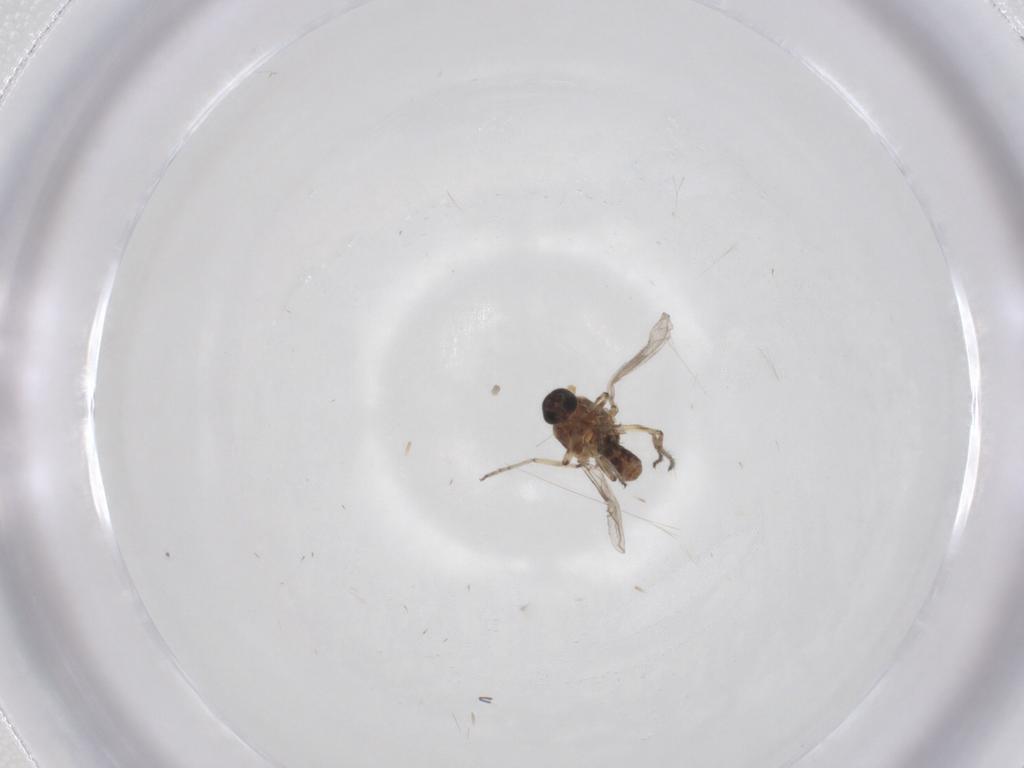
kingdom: Animalia
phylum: Arthropoda
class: Insecta
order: Diptera
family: Ceratopogonidae
